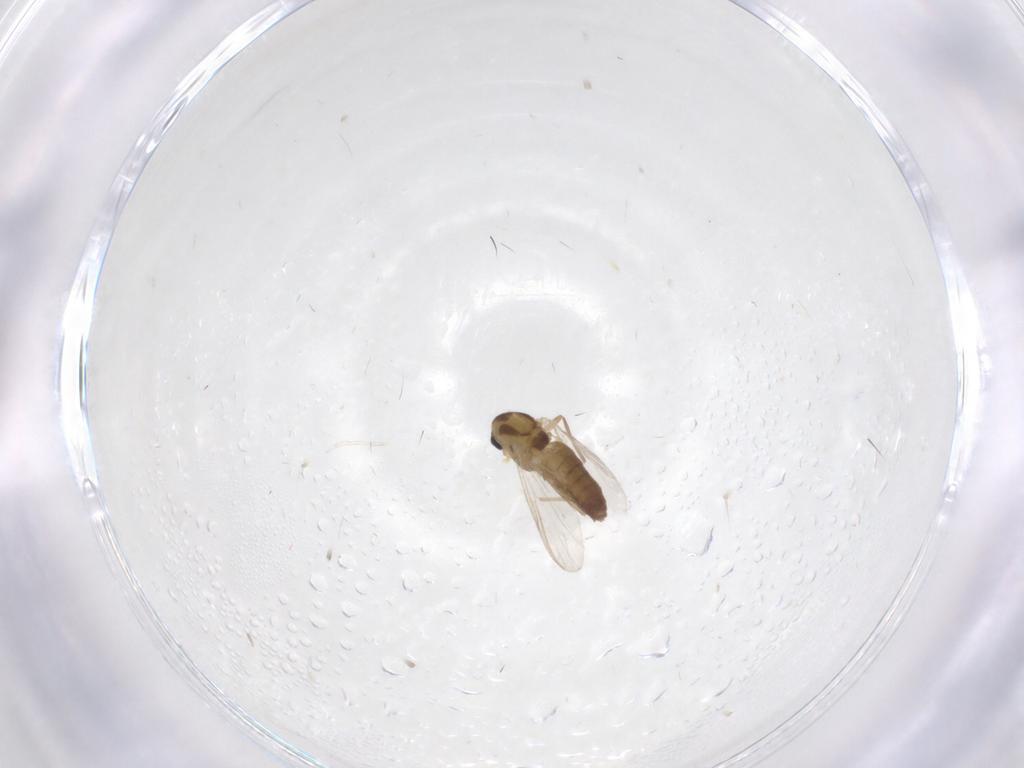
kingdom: Animalia
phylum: Arthropoda
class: Insecta
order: Diptera
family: Chironomidae
